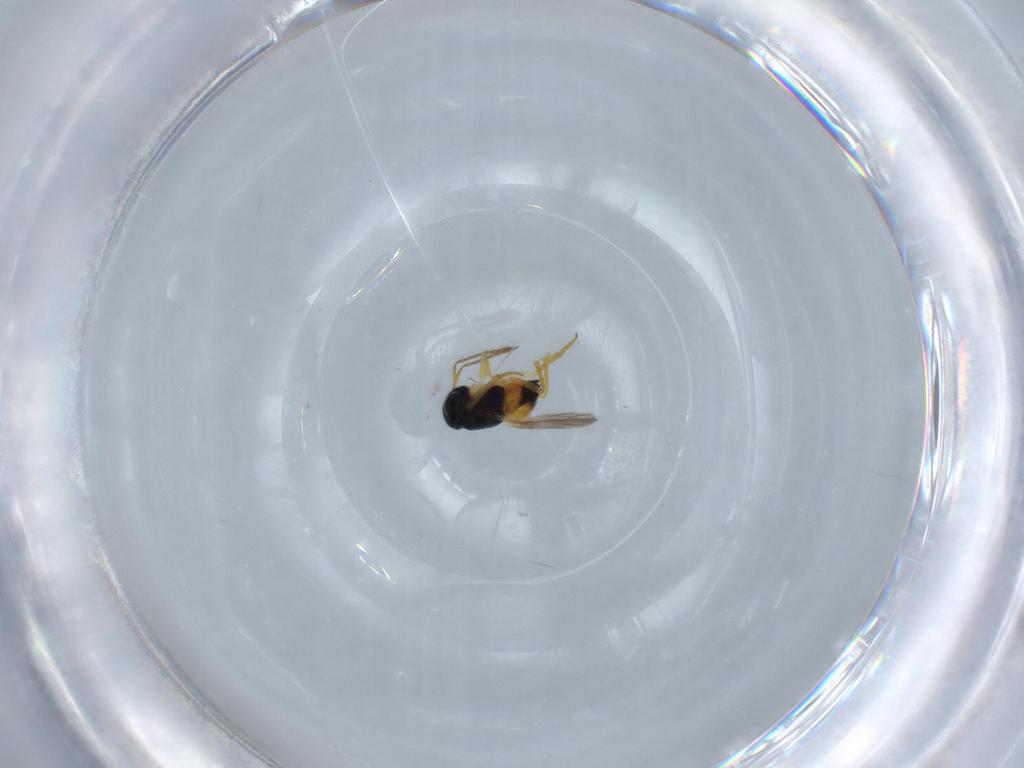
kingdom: Animalia
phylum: Arthropoda
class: Insecta
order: Hymenoptera
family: Encyrtidae
